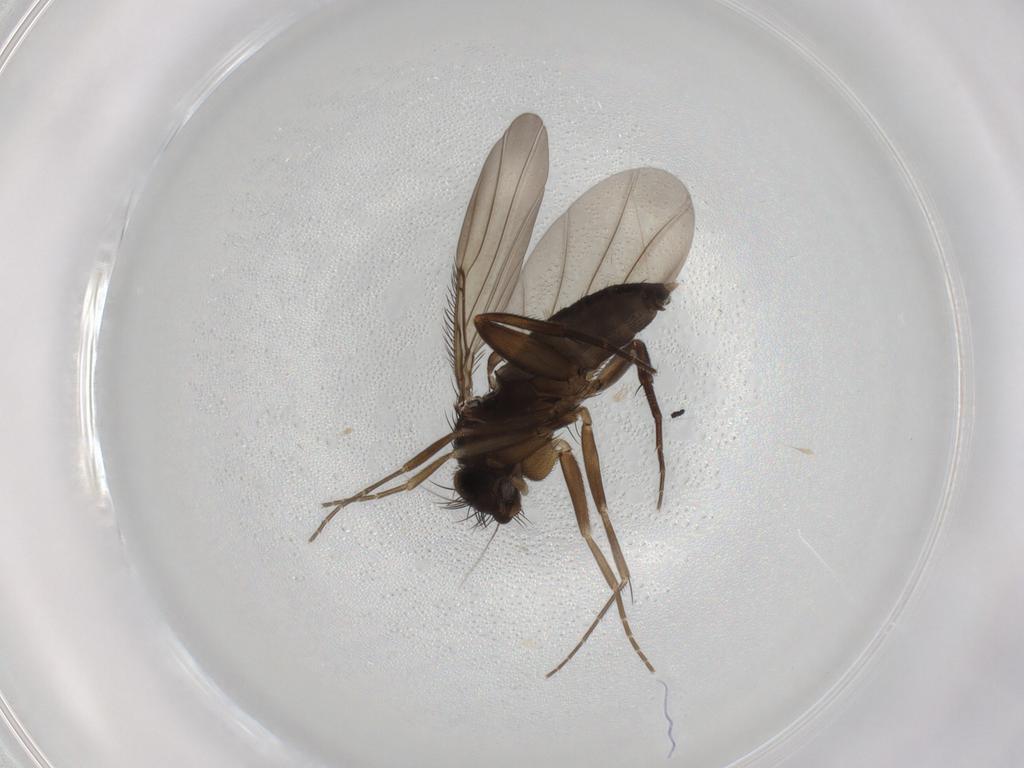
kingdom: Animalia
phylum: Arthropoda
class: Insecta
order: Diptera
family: Phoridae
